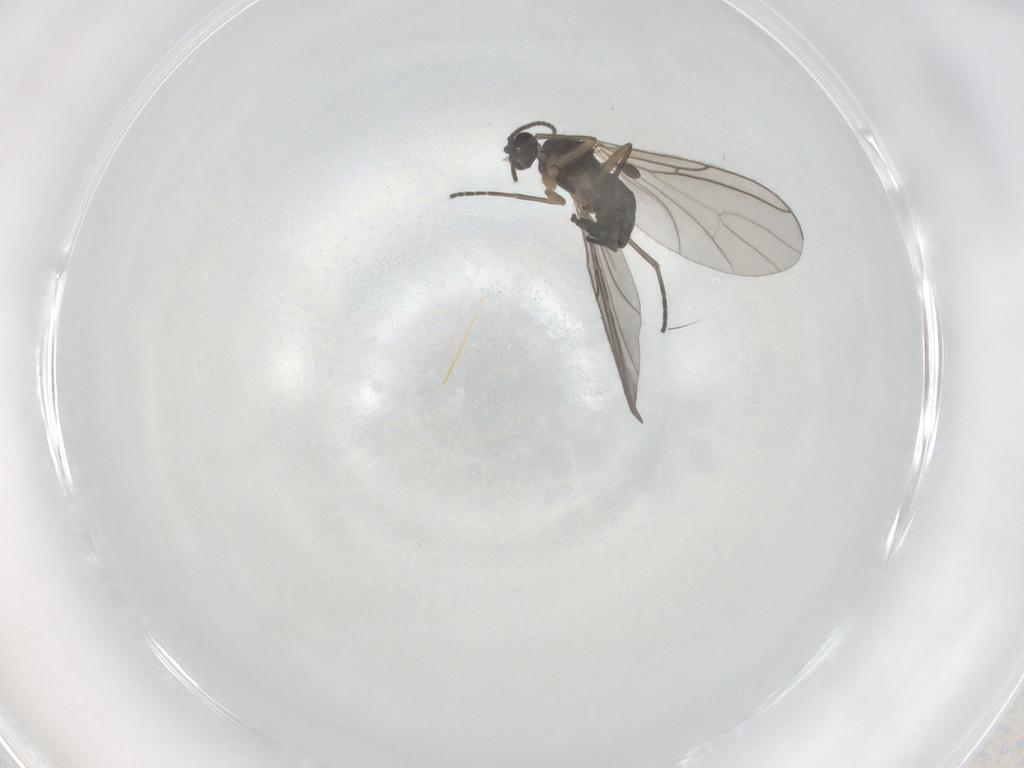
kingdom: Animalia
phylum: Arthropoda
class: Insecta
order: Diptera
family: Sciaridae
